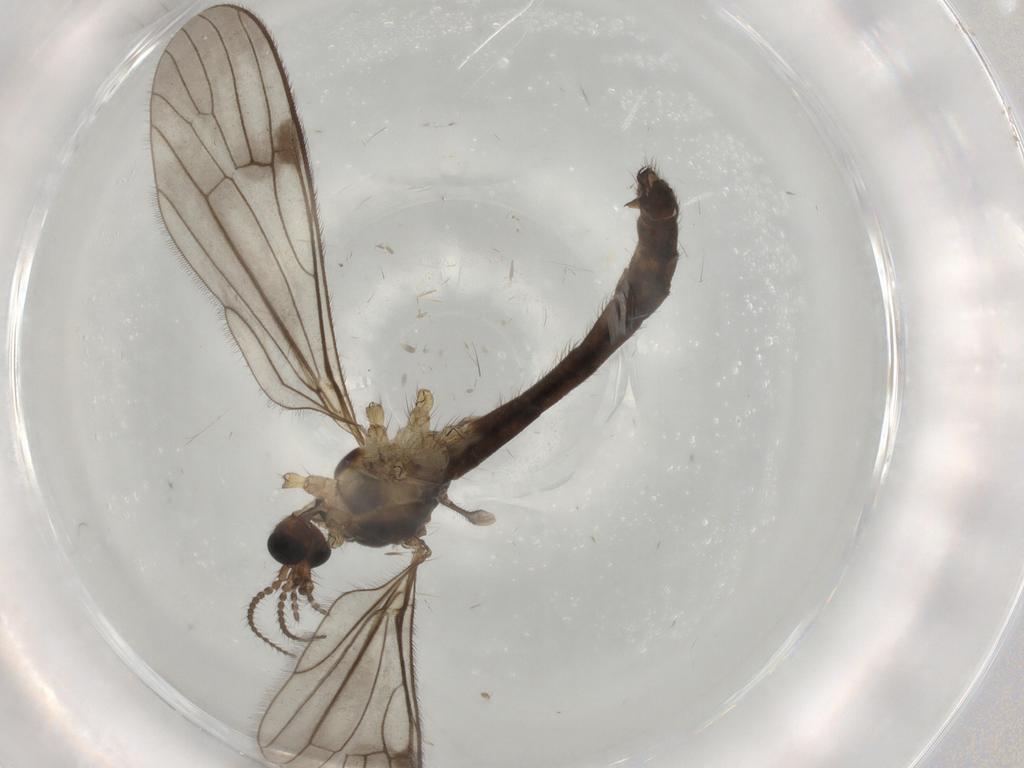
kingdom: Animalia
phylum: Arthropoda
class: Insecta
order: Diptera
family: Limoniidae
